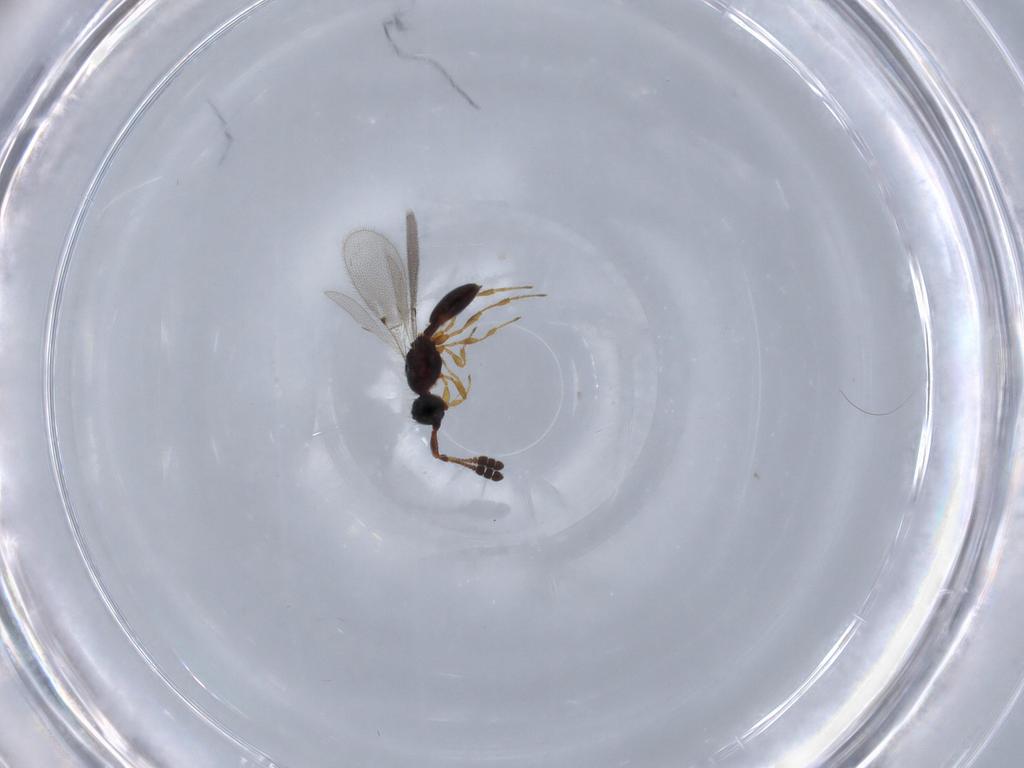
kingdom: Animalia
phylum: Arthropoda
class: Insecta
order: Hymenoptera
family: Diapriidae
